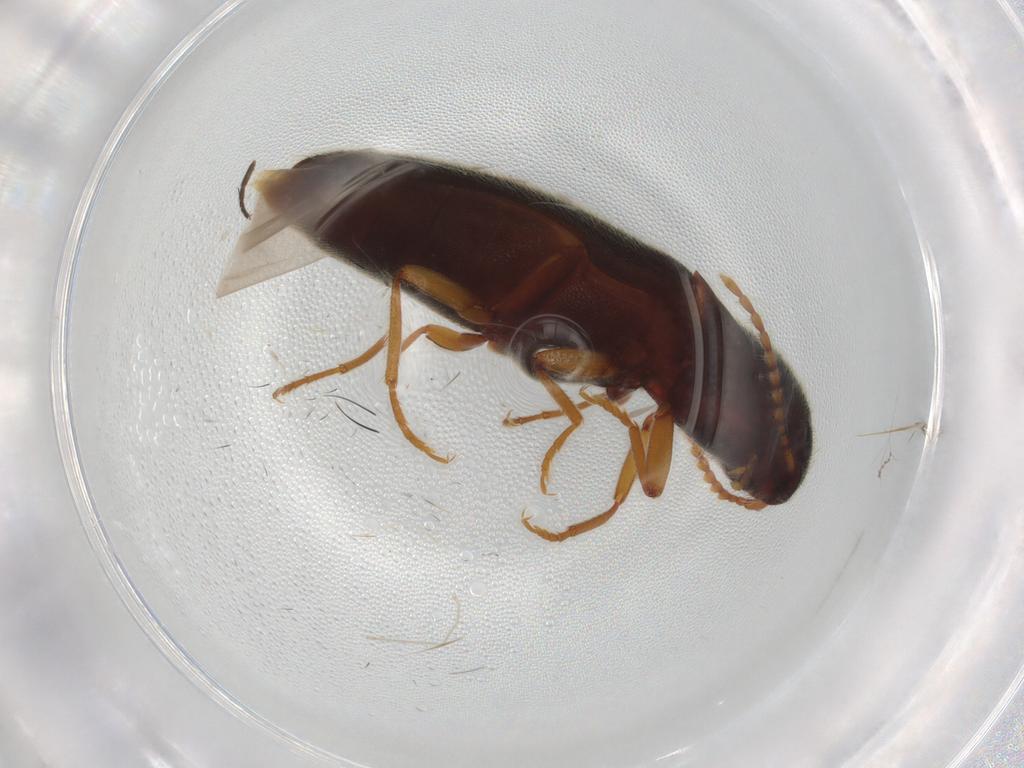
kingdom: Animalia
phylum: Arthropoda
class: Insecta
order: Coleoptera
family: Elateridae
